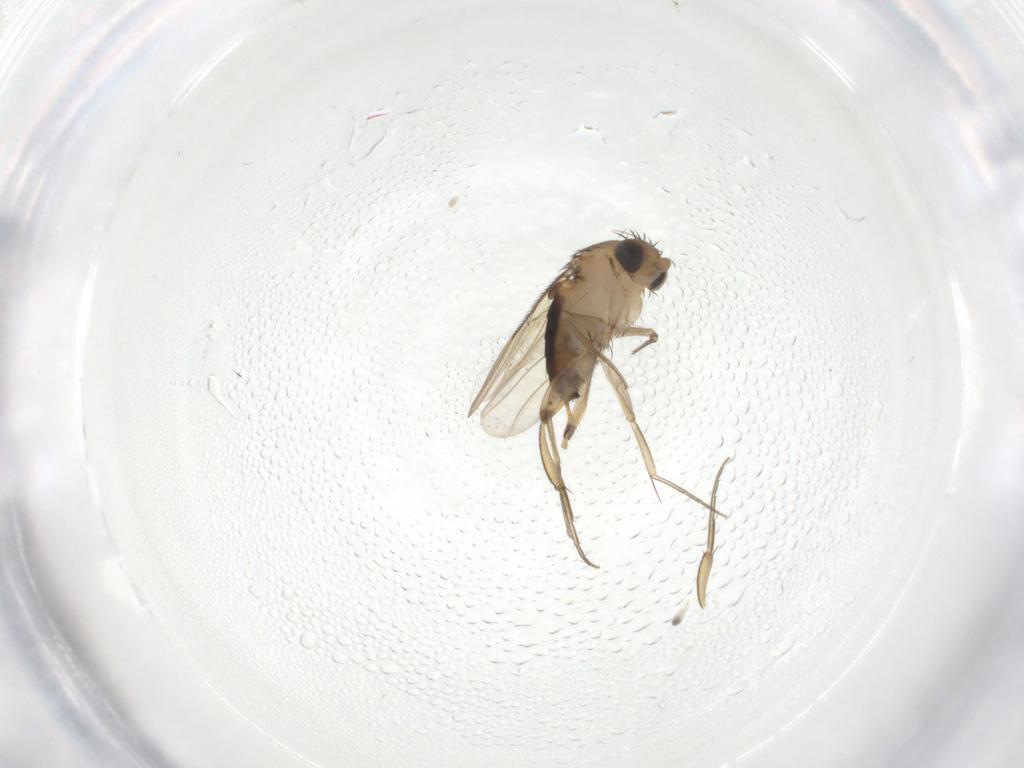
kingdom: Animalia
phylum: Arthropoda
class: Insecta
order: Diptera
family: Phoridae
